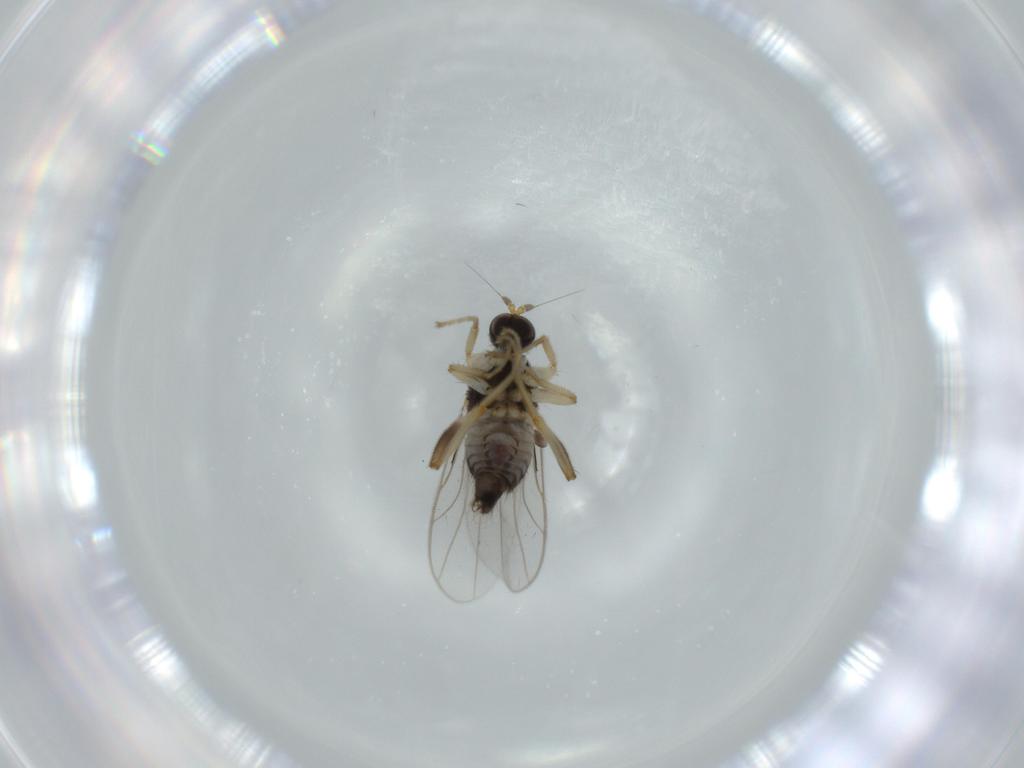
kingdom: Animalia
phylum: Arthropoda
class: Insecta
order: Diptera
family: Hybotidae
